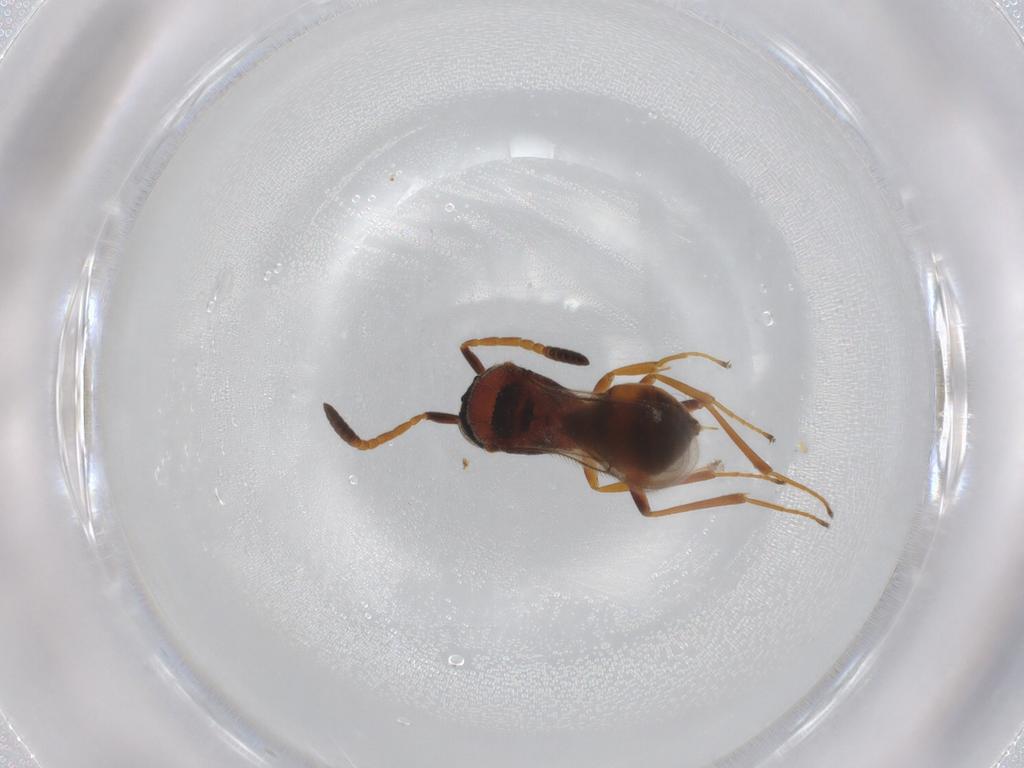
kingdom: Animalia
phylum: Arthropoda
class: Insecta
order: Hymenoptera
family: Scelionidae
